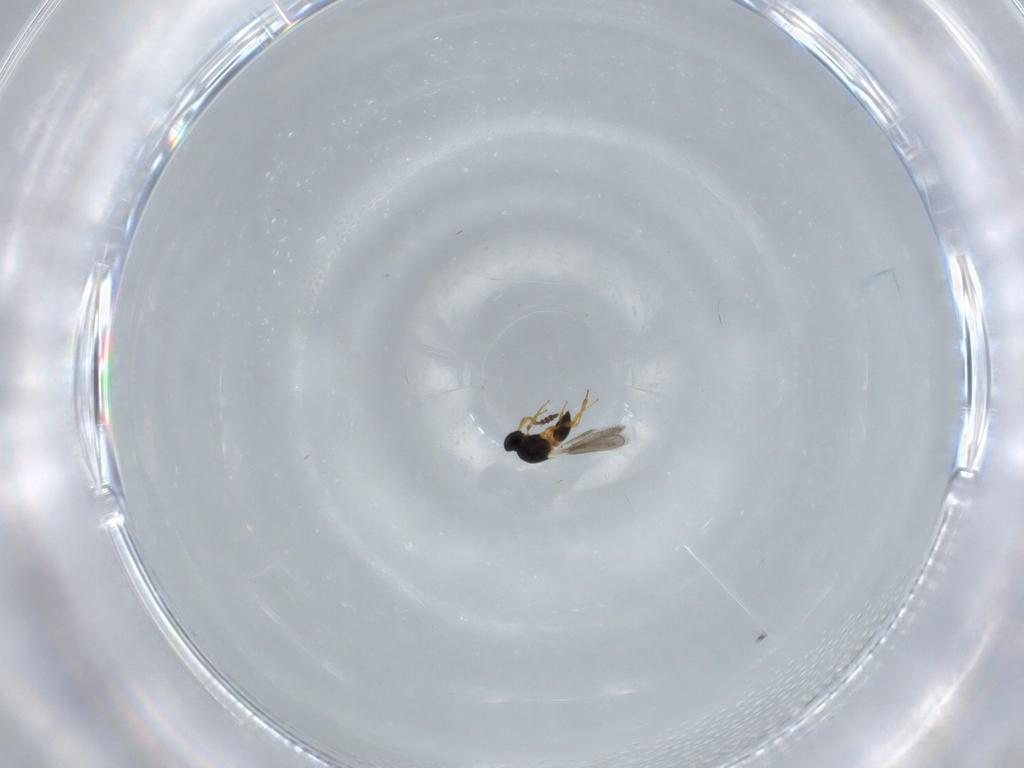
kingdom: Animalia
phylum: Arthropoda
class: Insecta
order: Hymenoptera
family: Platygastridae
